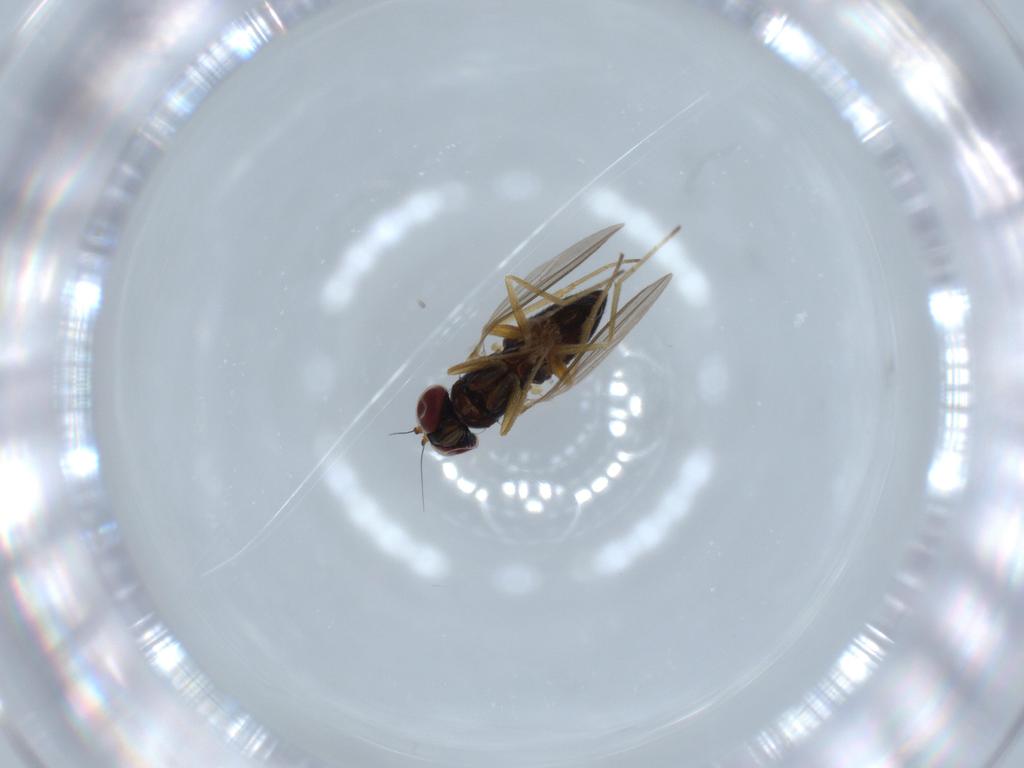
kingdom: Animalia
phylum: Arthropoda
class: Insecta
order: Diptera
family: Dolichopodidae
